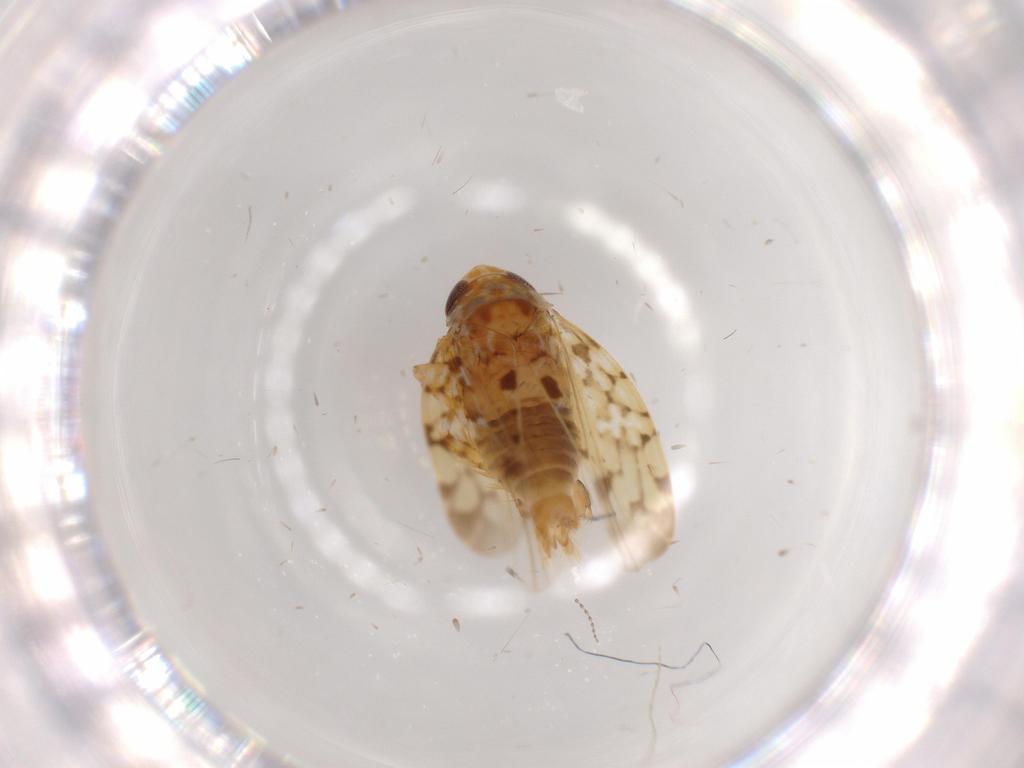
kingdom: Animalia
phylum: Arthropoda
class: Insecta
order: Hemiptera
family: Cicadellidae
